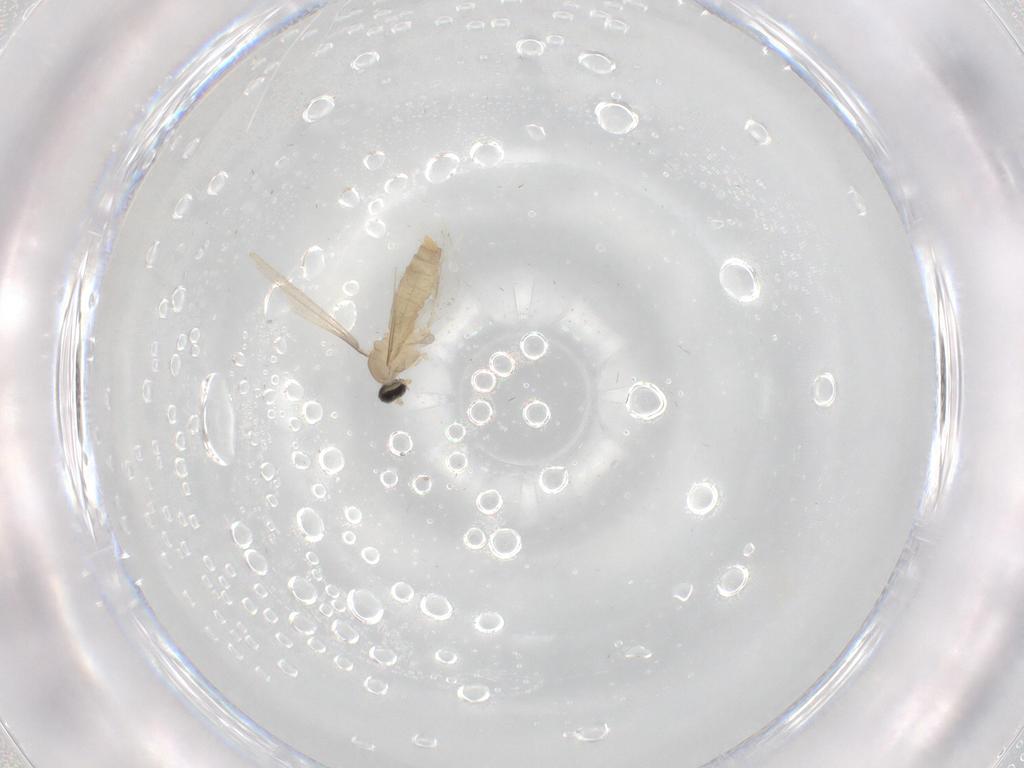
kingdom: Animalia
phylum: Arthropoda
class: Insecta
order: Diptera
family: Cecidomyiidae
